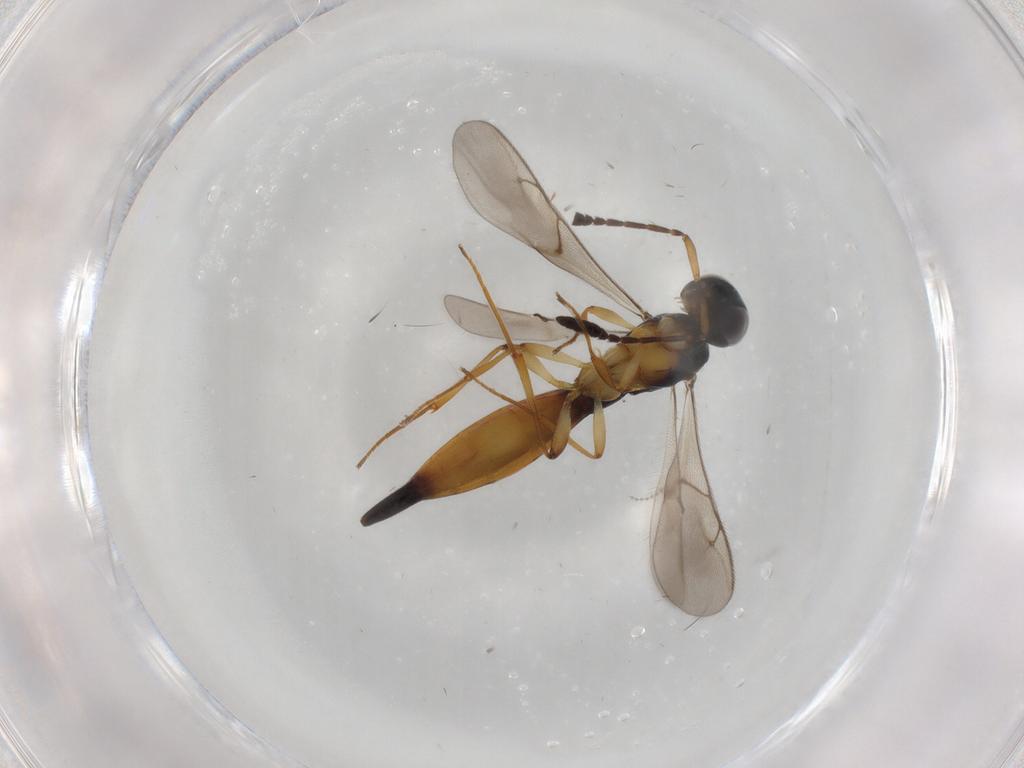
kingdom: Animalia
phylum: Arthropoda
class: Insecta
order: Hymenoptera
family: Scelionidae
